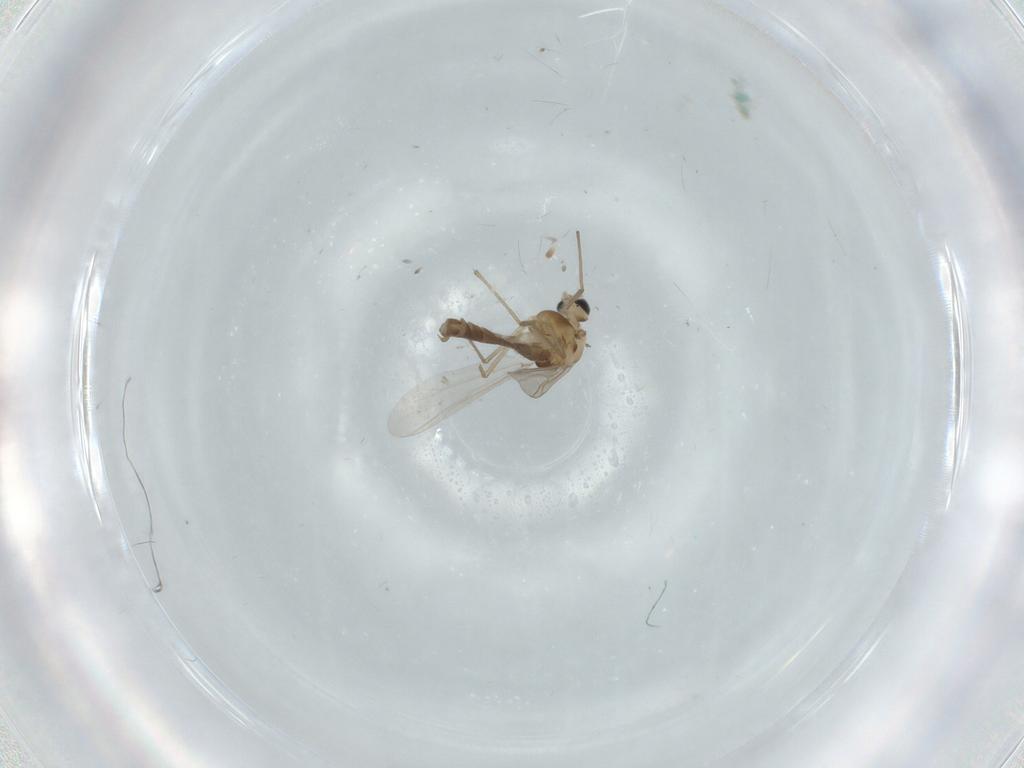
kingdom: Animalia
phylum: Arthropoda
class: Insecta
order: Diptera
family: Chironomidae
